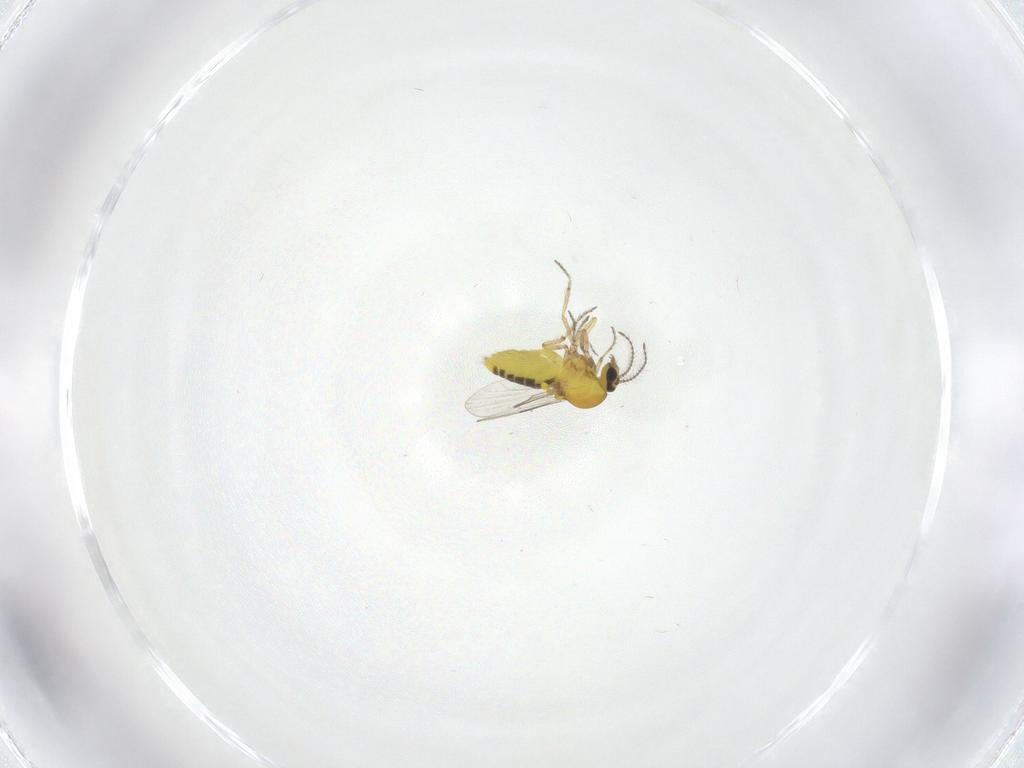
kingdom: Animalia
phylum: Arthropoda
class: Insecta
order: Diptera
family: Ceratopogonidae
